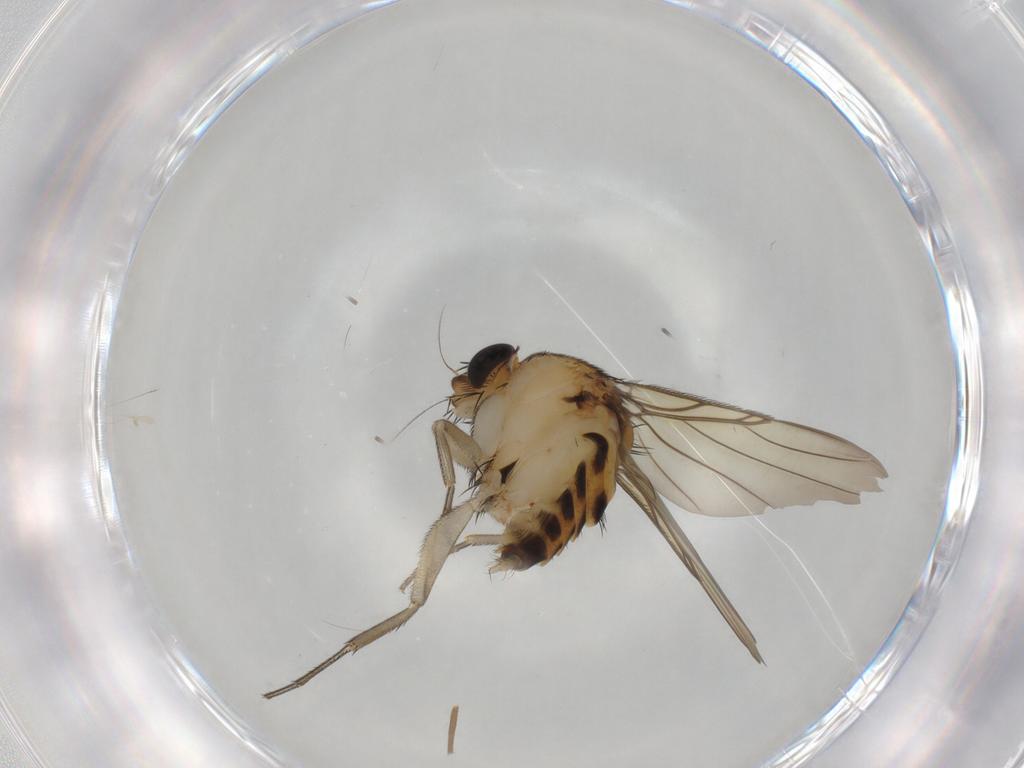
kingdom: Animalia
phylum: Arthropoda
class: Insecta
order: Diptera
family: Phoridae
